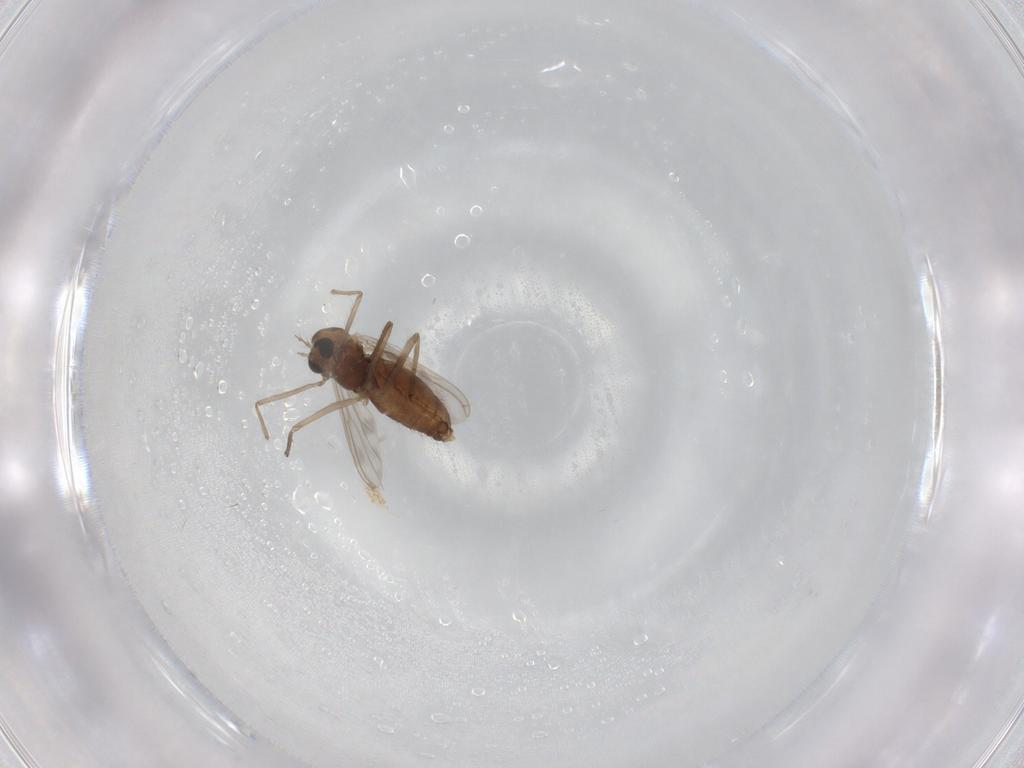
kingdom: Animalia
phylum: Arthropoda
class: Insecta
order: Diptera
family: Chironomidae
